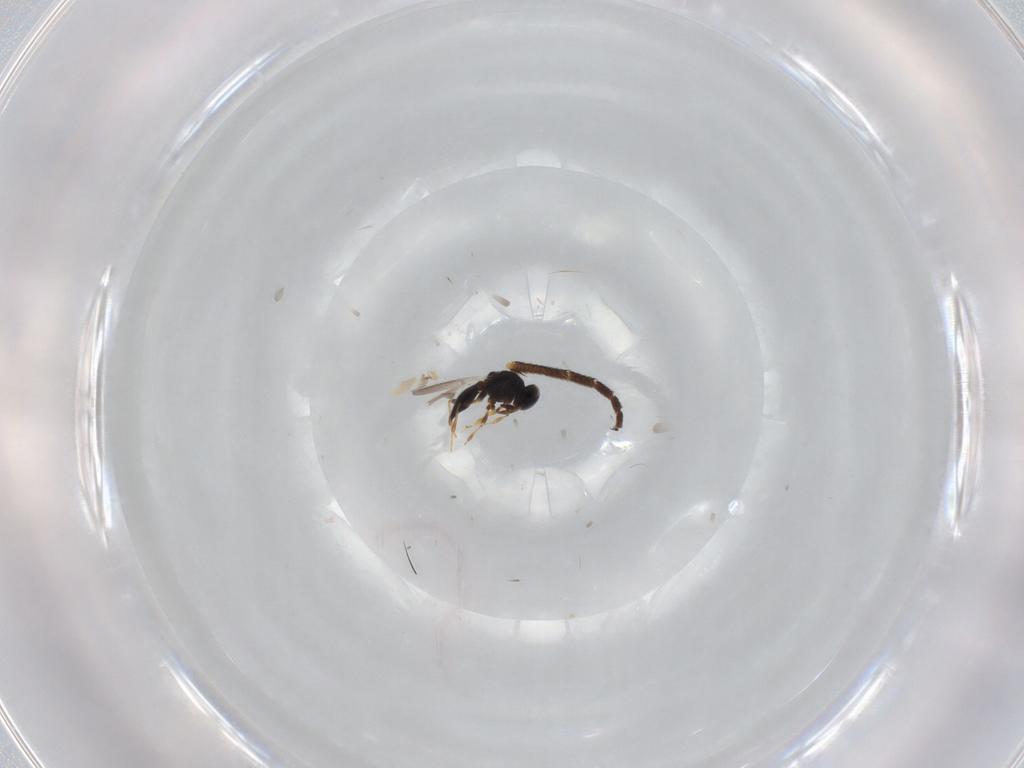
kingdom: Animalia
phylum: Arthropoda
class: Insecta
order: Hymenoptera
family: Platygastridae
